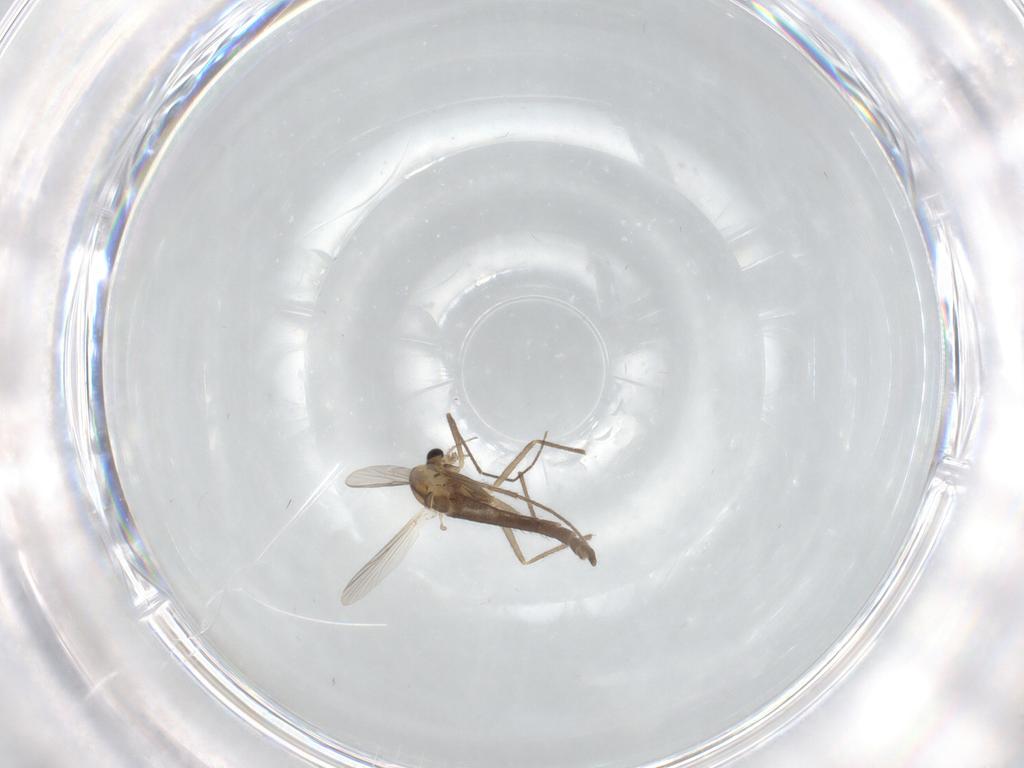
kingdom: Animalia
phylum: Arthropoda
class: Insecta
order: Diptera
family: Chironomidae
